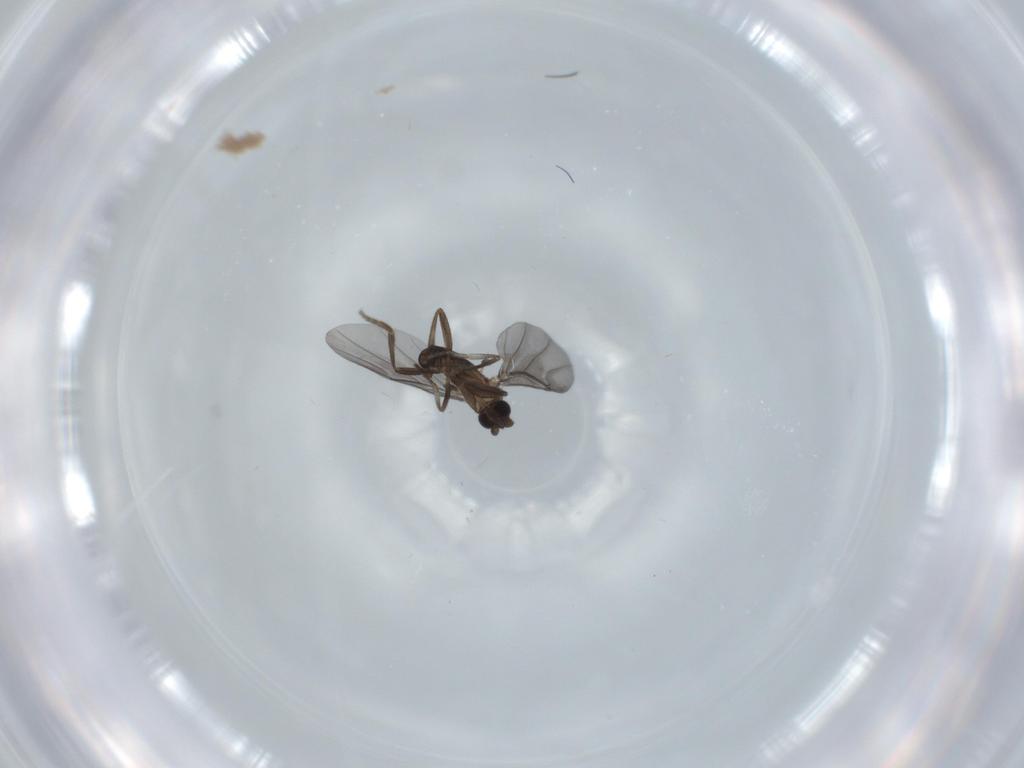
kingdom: Animalia
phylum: Arthropoda
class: Insecta
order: Diptera
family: Phoridae
